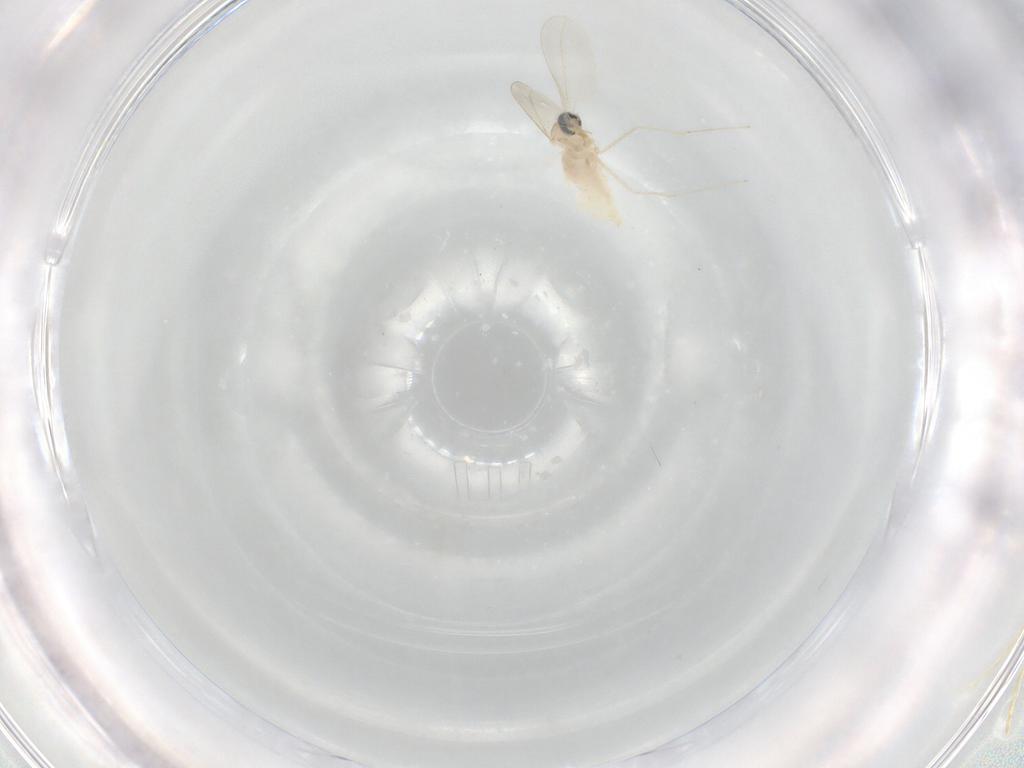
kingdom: Animalia
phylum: Arthropoda
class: Insecta
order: Diptera
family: Cecidomyiidae
